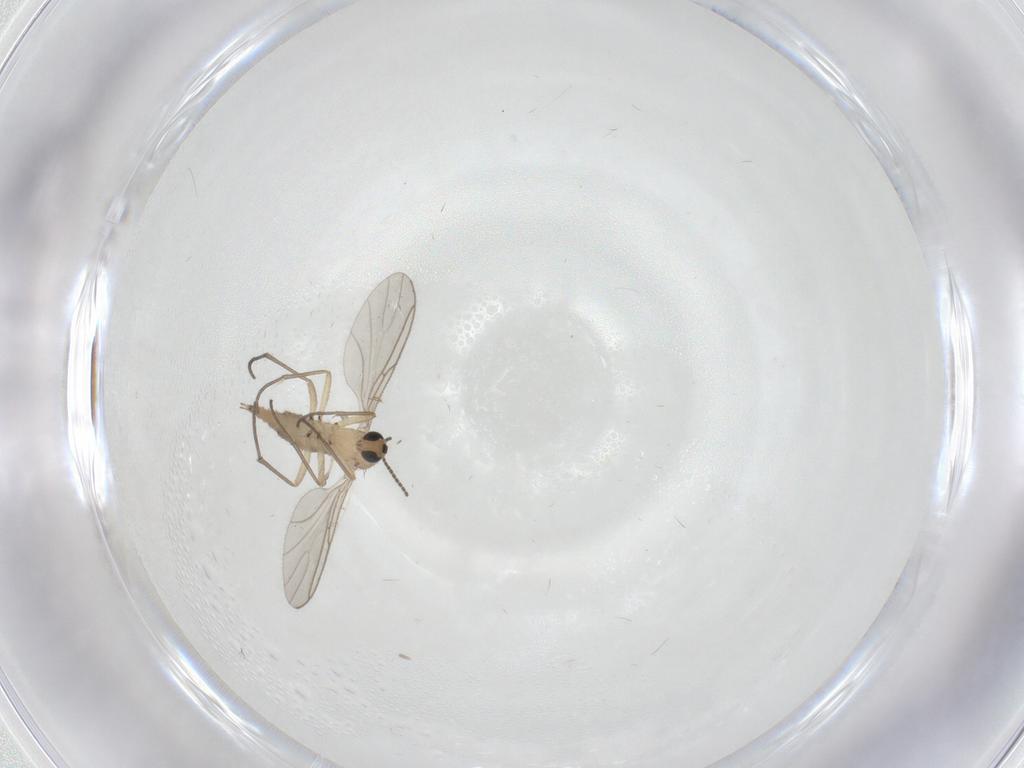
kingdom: Animalia
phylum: Arthropoda
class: Insecta
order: Diptera
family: Sciaridae
